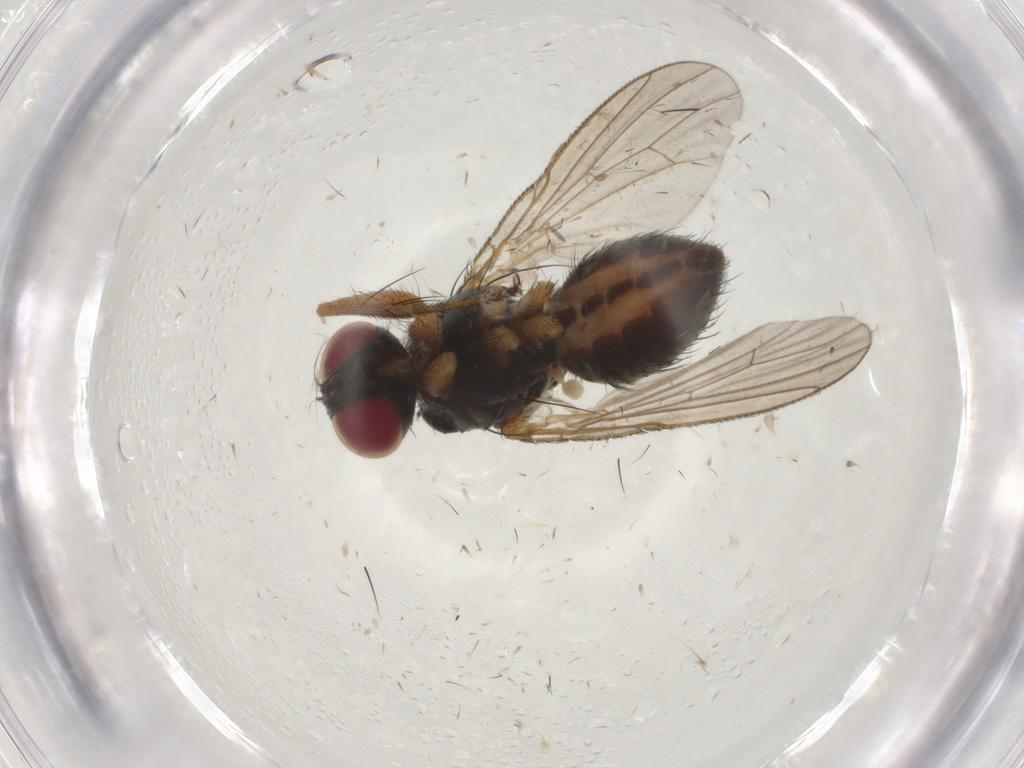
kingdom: Animalia
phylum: Arthropoda
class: Insecta
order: Diptera
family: Muscidae
